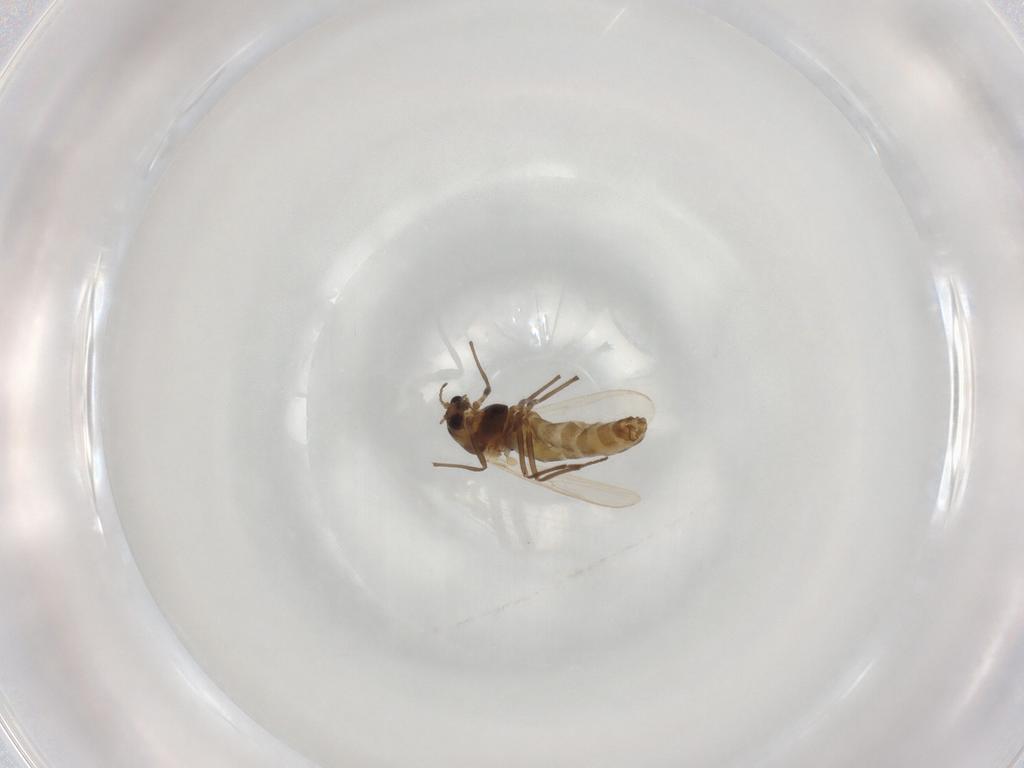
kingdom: Animalia
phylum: Arthropoda
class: Insecta
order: Diptera
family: Chironomidae
